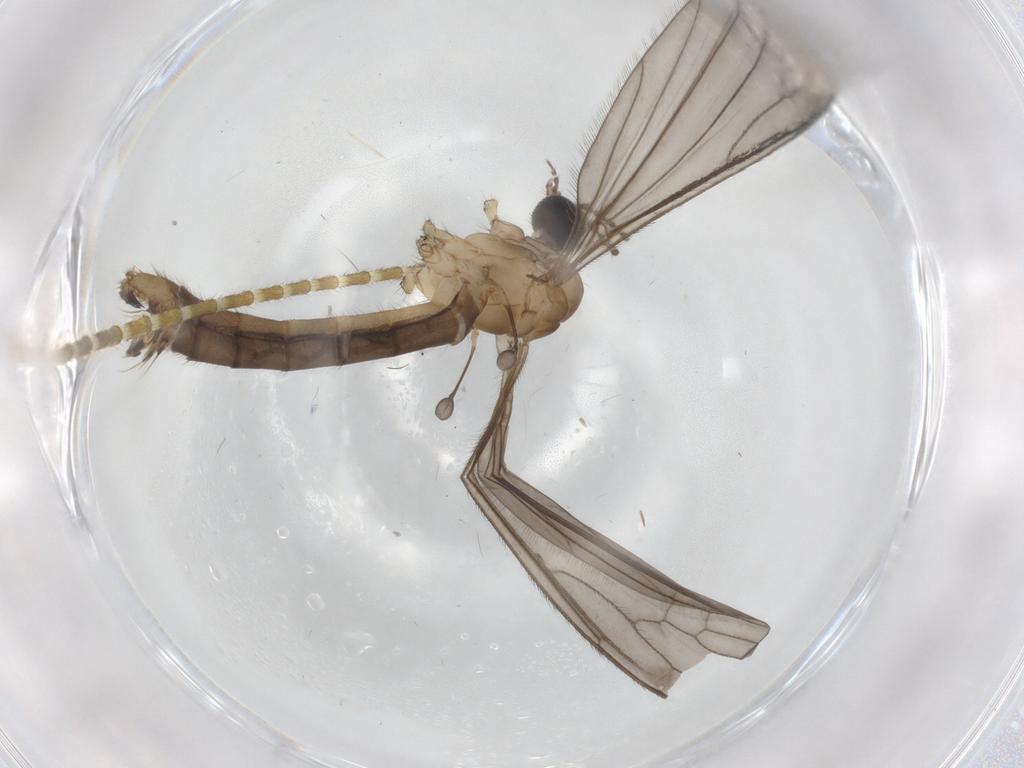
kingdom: Animalia
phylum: Arthropoda
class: Insecta
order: Diptera
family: Limoniidae
